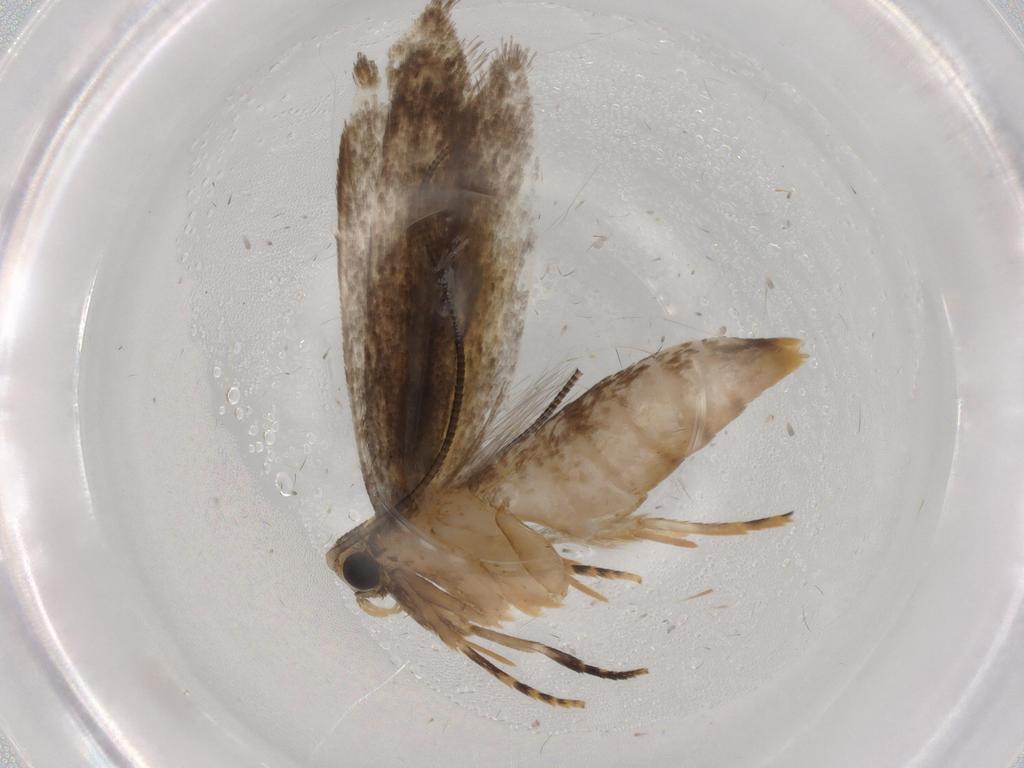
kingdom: Animalia
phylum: Arthropoda
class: Insecta
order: Lepidoptera
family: Tineidae
